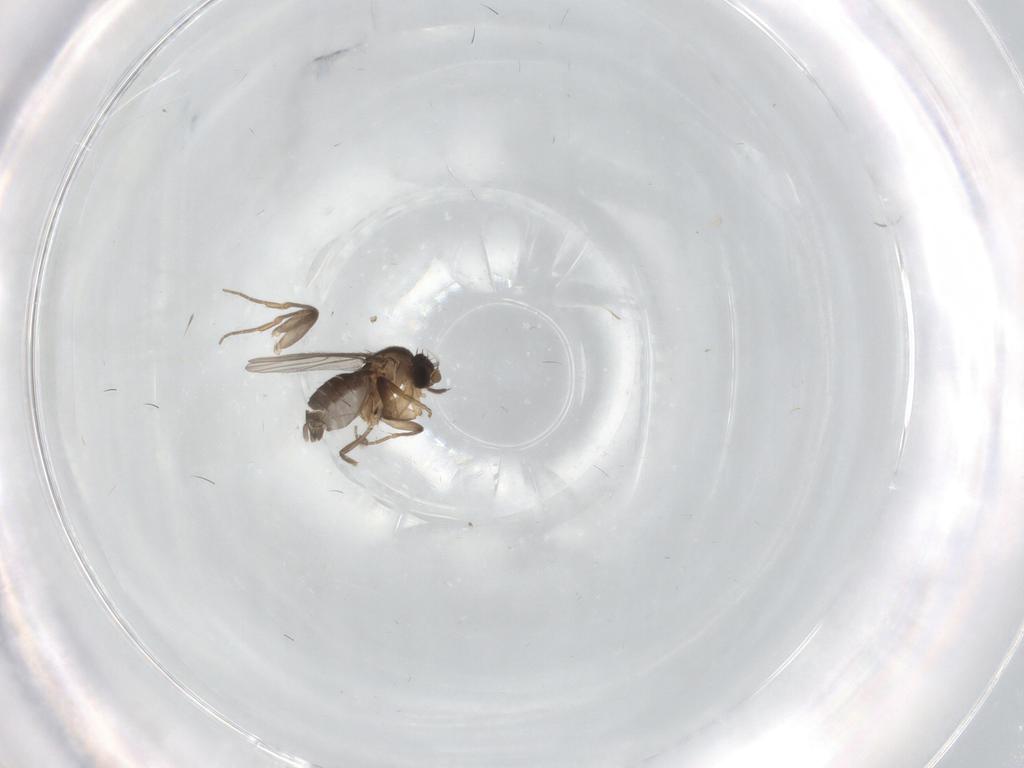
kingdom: Animalia
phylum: Arthropoda
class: Insecta
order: Diptera
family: Phoridae
